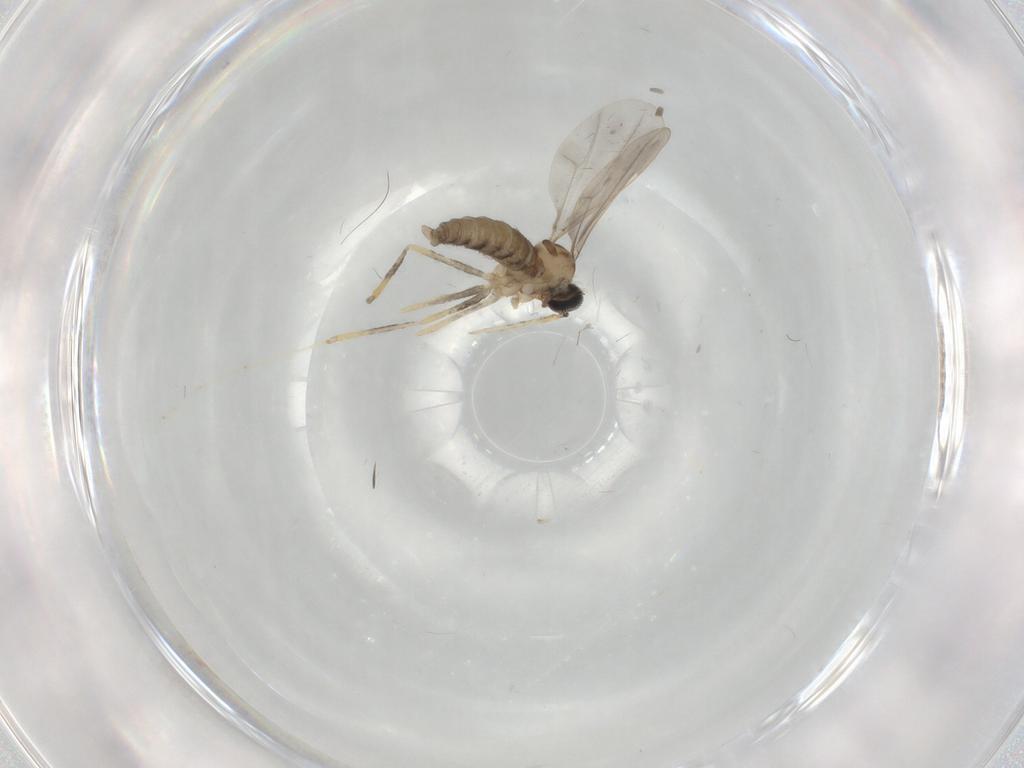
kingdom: Animalia
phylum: Arthropoda
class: Insecta
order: Diptera
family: Cecidomyiidae
